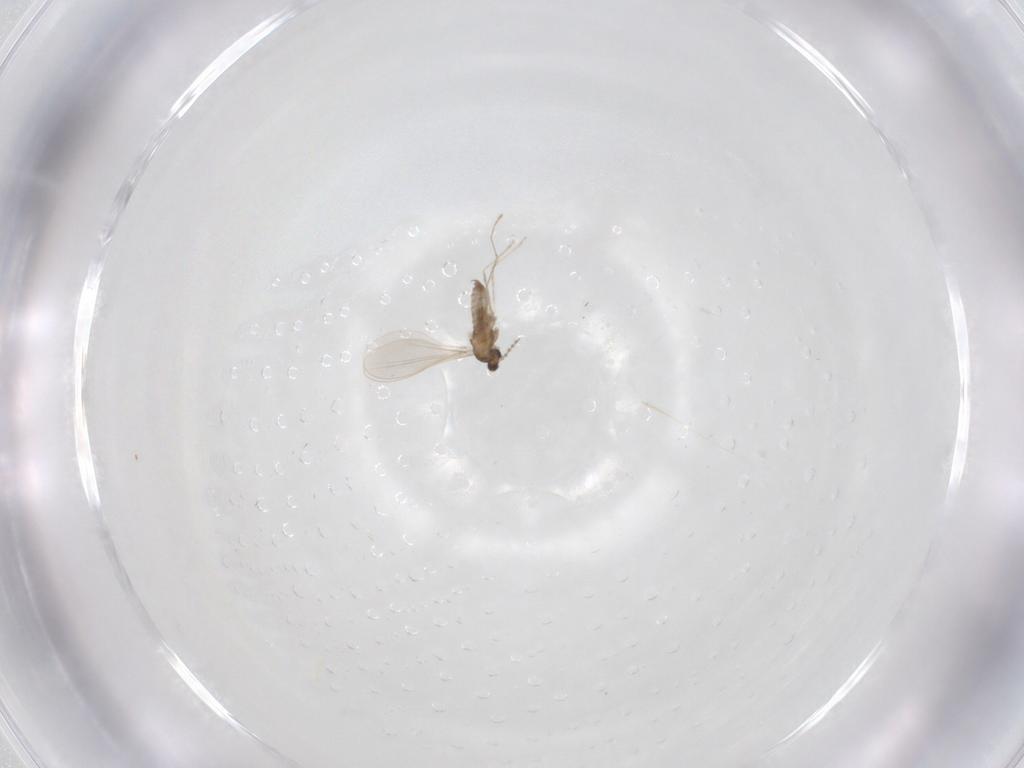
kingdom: Animalia
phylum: Arthropoda
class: Insecta
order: Diptera
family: Cecidomyiidae
